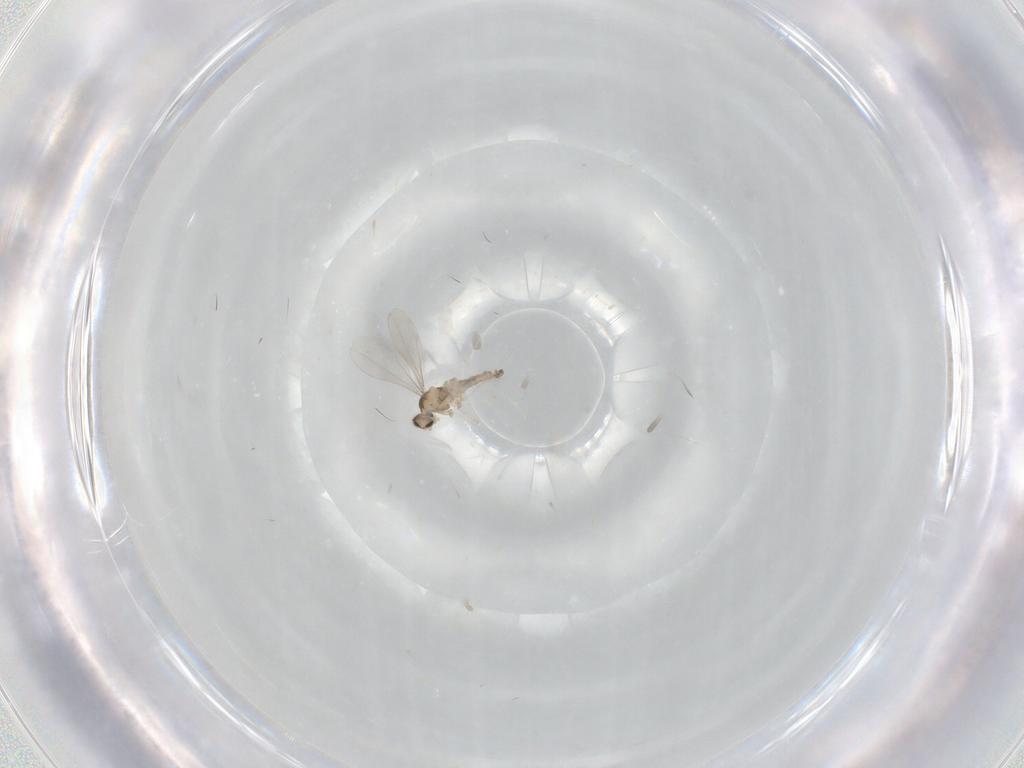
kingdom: Animalia
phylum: Arthropoda
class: Insecta
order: Diptera
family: Cecidomyiidae
